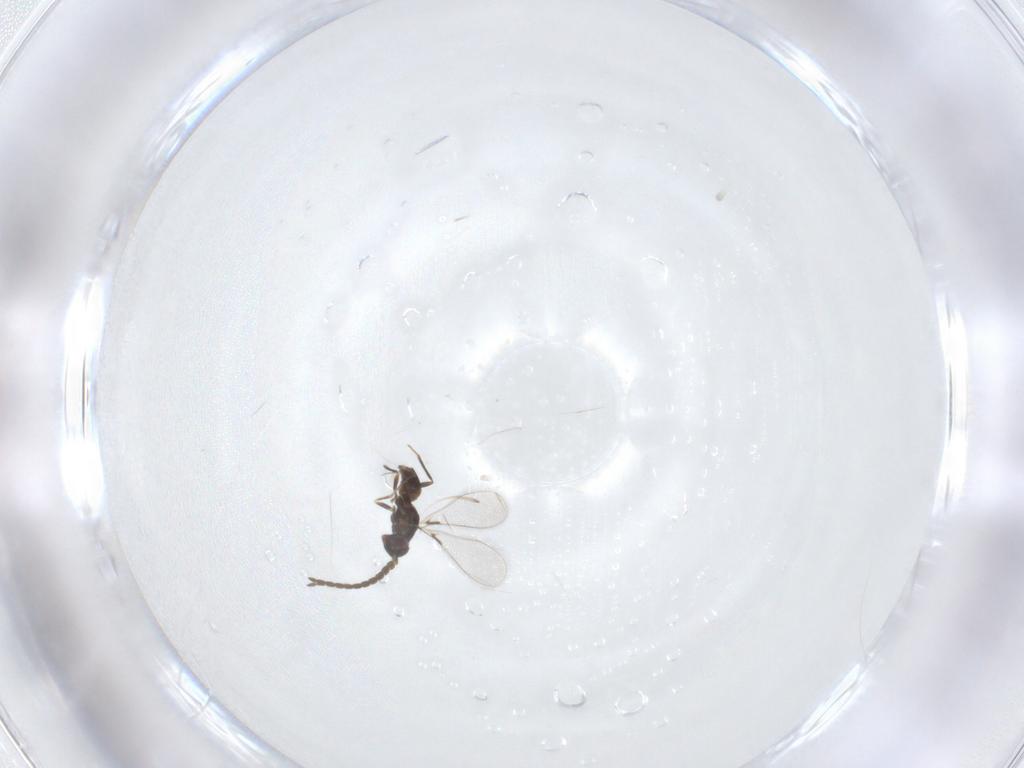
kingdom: Animalia
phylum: Arthropoda
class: Insecta
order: Hymenoptera
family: Mymaridae
